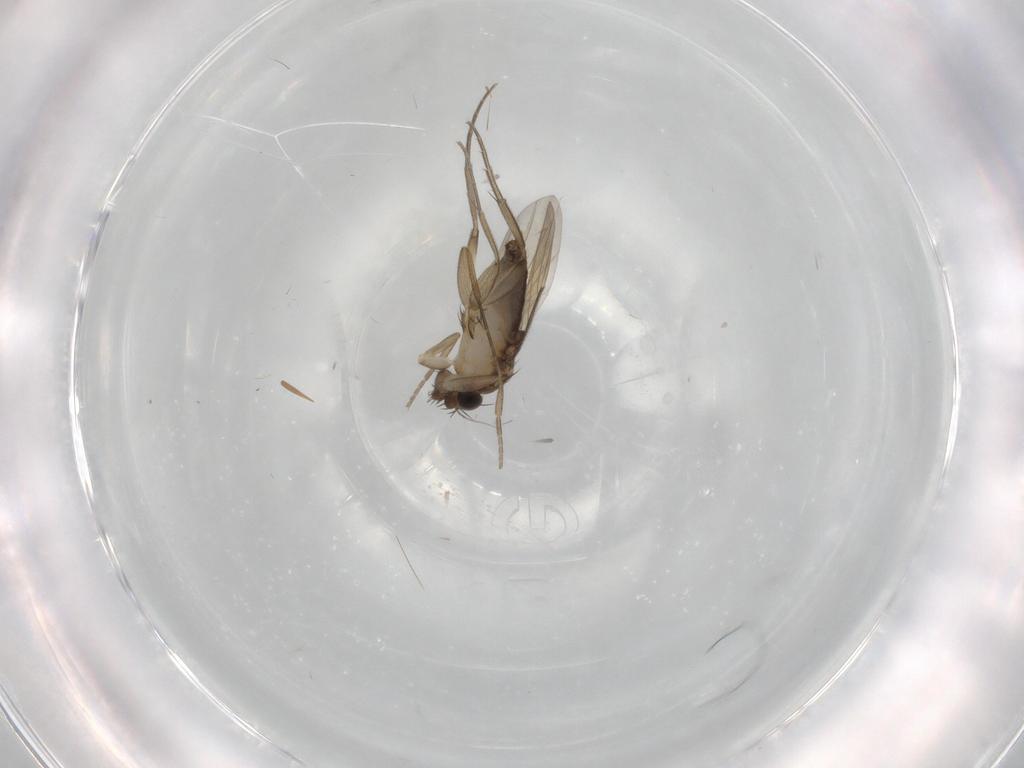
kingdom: Animalia
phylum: Arthropoda
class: Insecta
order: Diptera
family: Phoridae
